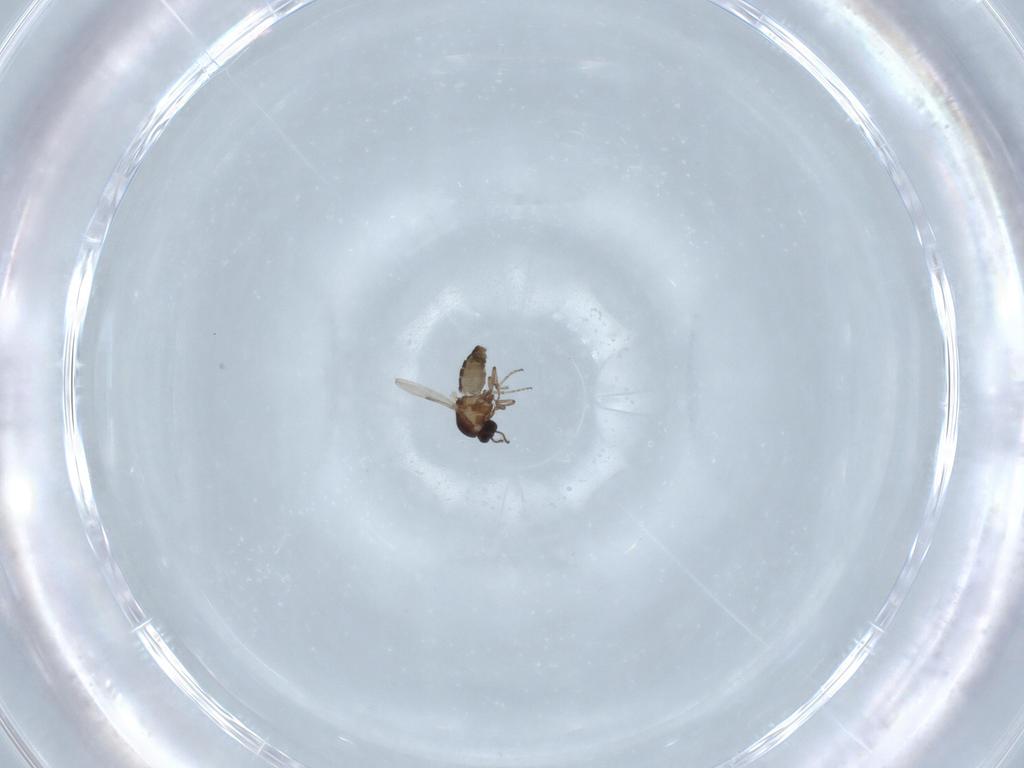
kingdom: Animalia
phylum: Arthropoda
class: Insecta
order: Diptera
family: Ceratopogonidae
